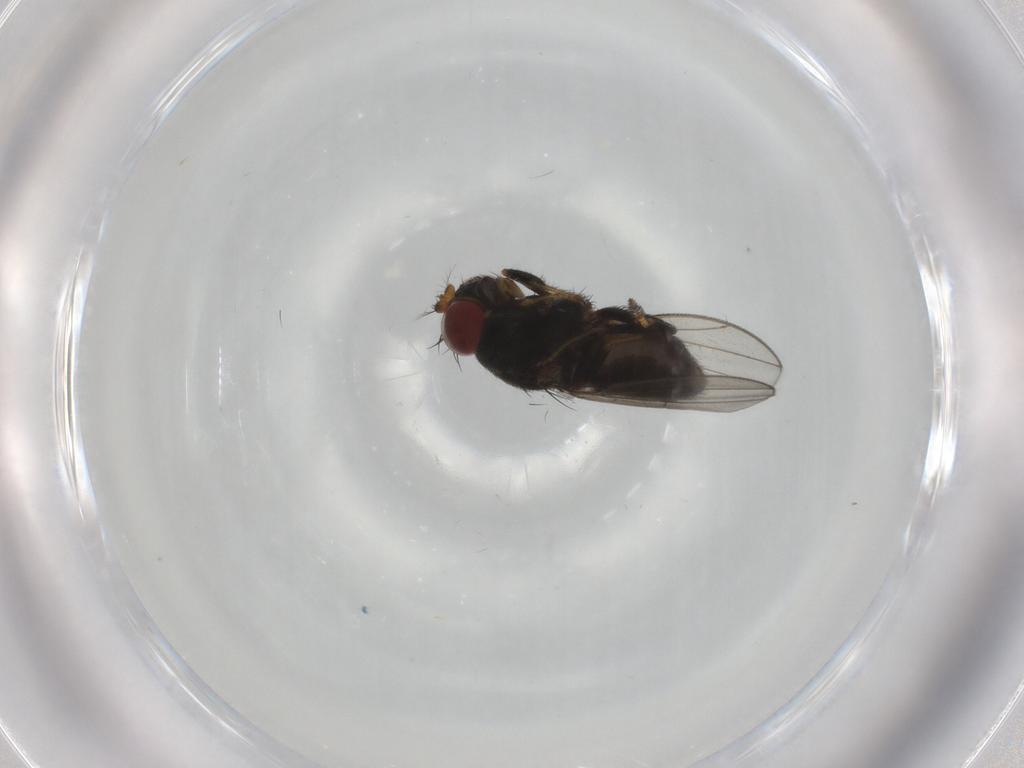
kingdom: Animalia
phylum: Arthropoda
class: Insecta
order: Diptera
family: Ephydridae
